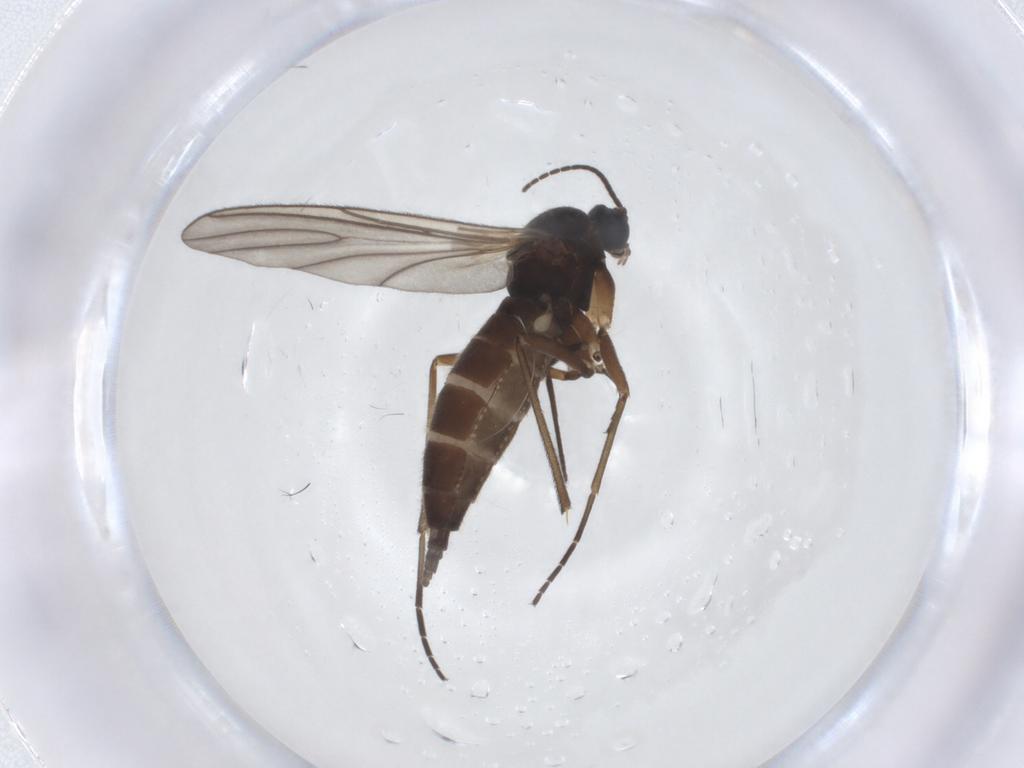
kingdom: Animalia
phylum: Arthropoda
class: Insecta
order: Diptera
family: Sciaridae
